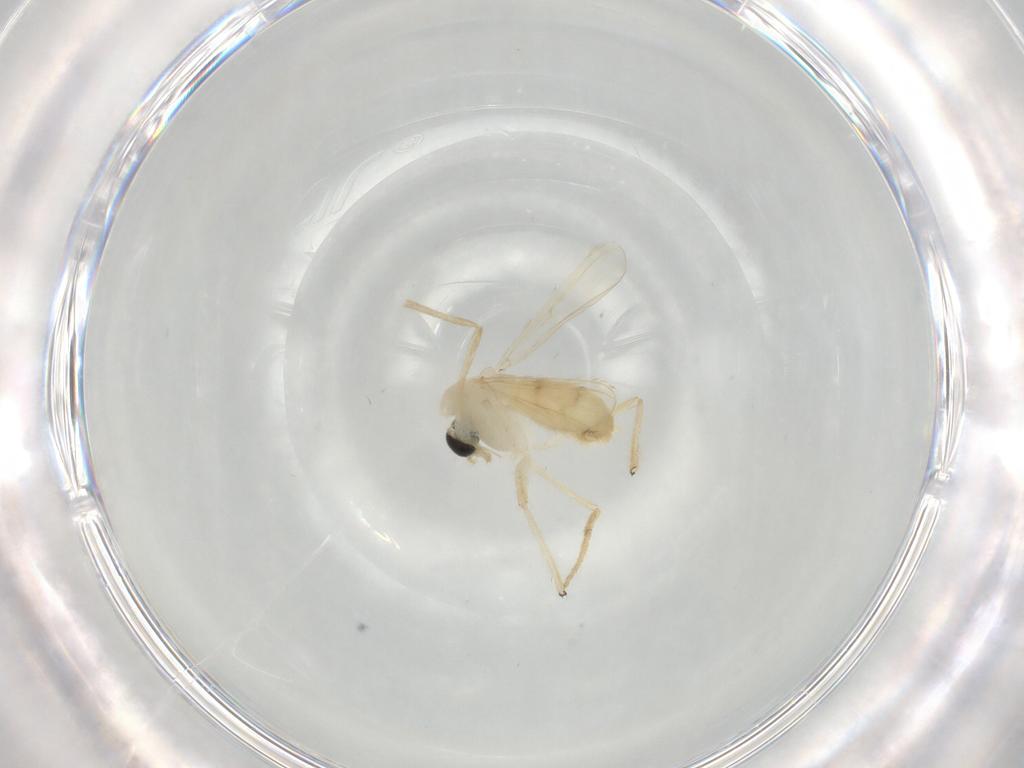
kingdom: Animalia
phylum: Arthropoda
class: Insecta
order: Diptera
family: Chironomidae
